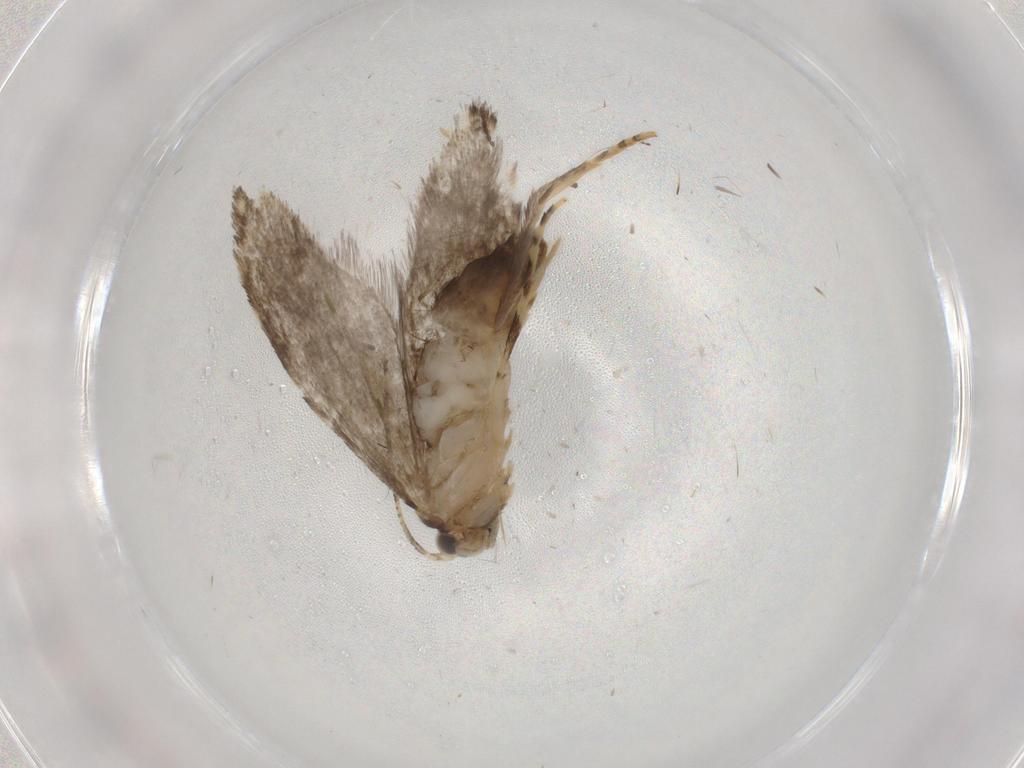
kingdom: Animalia
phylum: Arthropoda
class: Insecta
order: Lepidoptera
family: Tineidae
